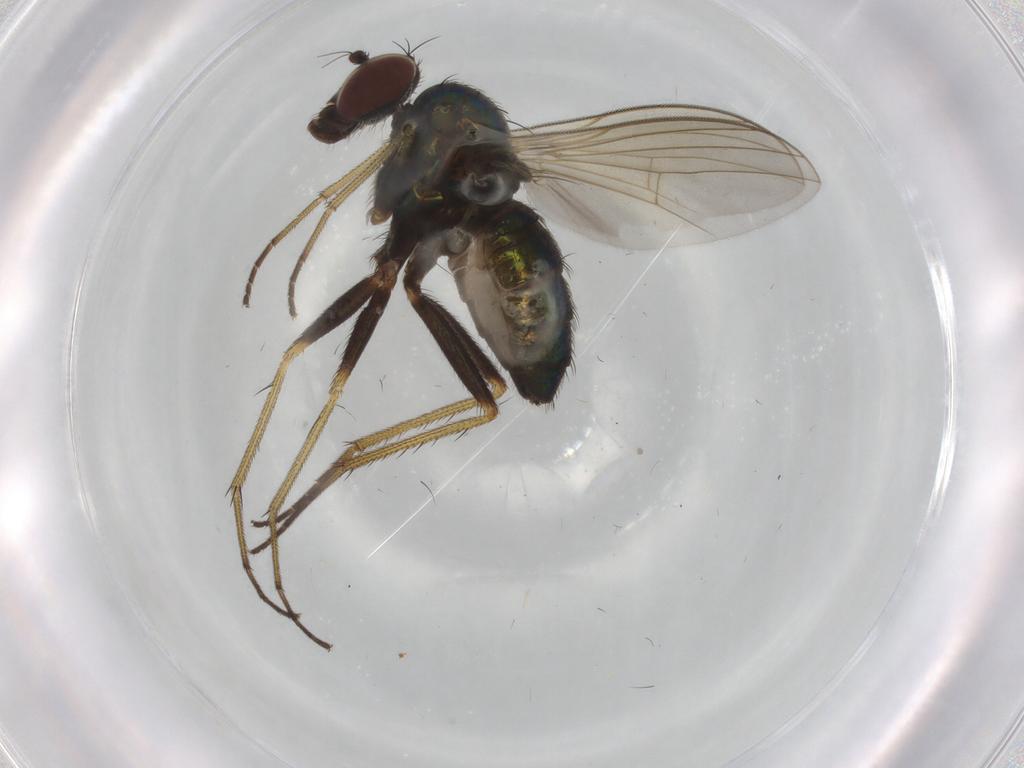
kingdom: Animalia
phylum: Arthropoda
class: Insecta
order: Diptera
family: Dolichopodidae
